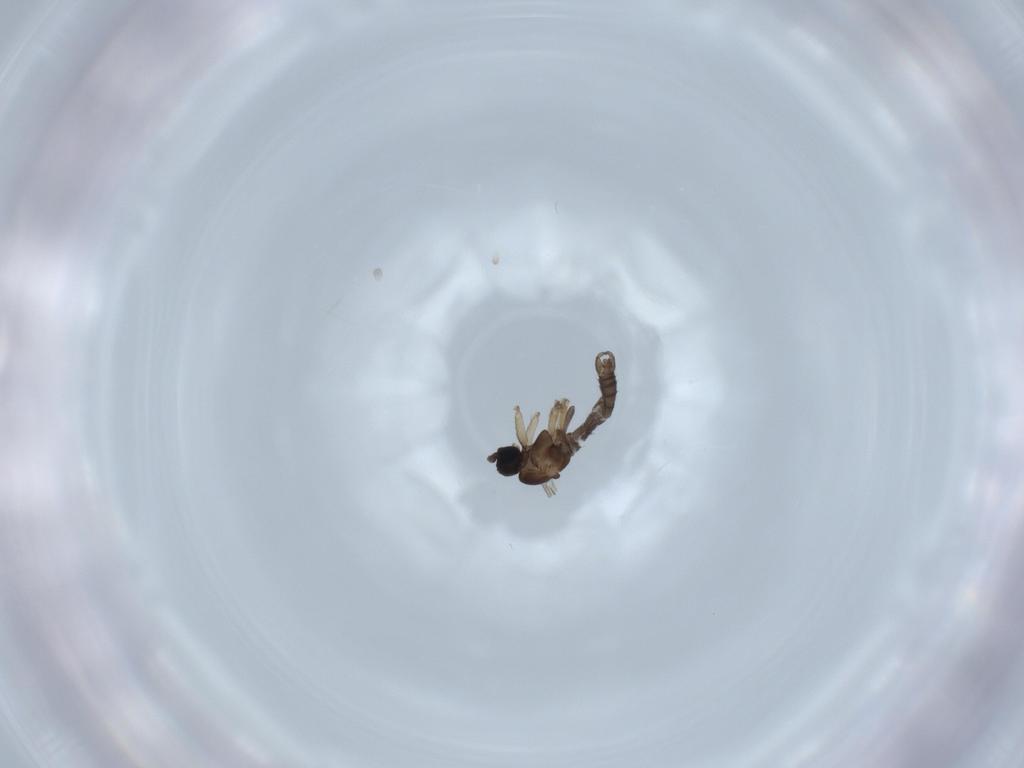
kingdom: Animalia
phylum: Arthropoda
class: Insecta
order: Diptera
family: Sciaridae
